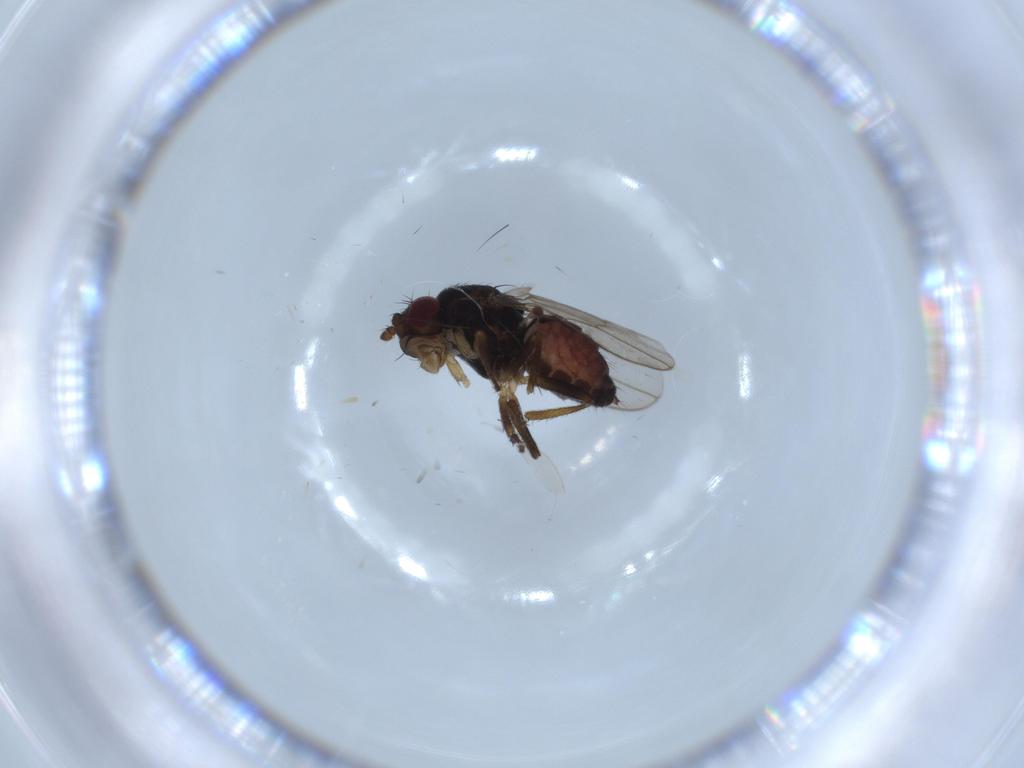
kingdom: Animalia
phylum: Arthropoda
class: Insecta
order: Diptera
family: Sphaeroceridae
